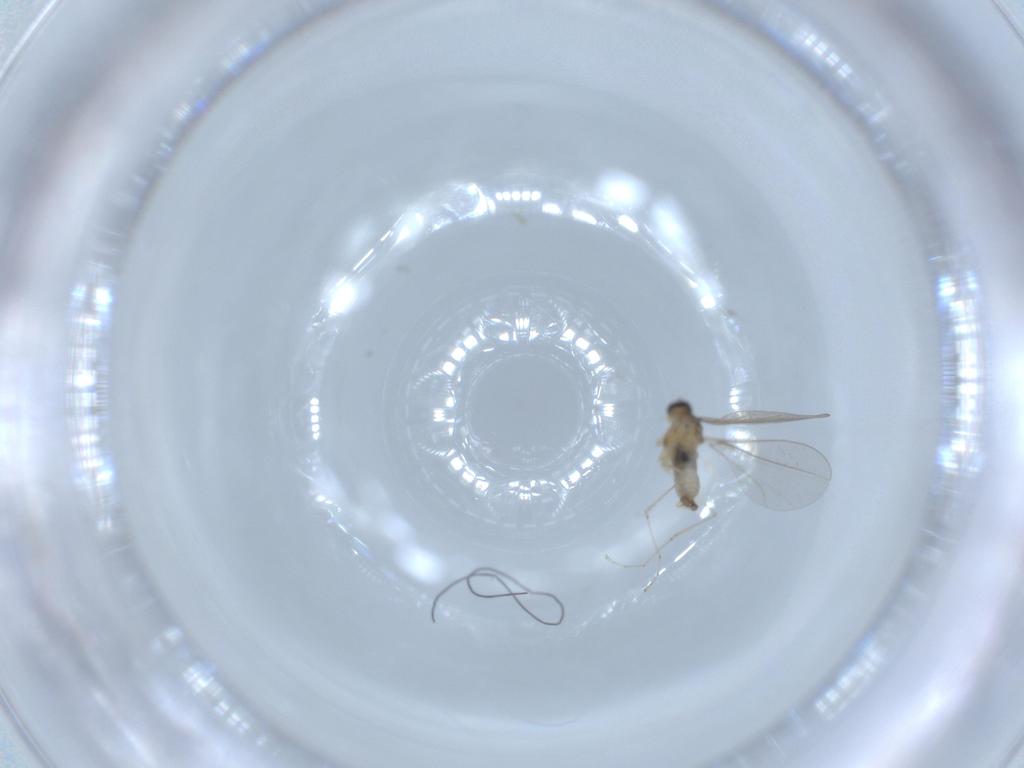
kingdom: Animalia
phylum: Arthropoda
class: Insecta
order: Diptera
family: Cecidomyiidae
